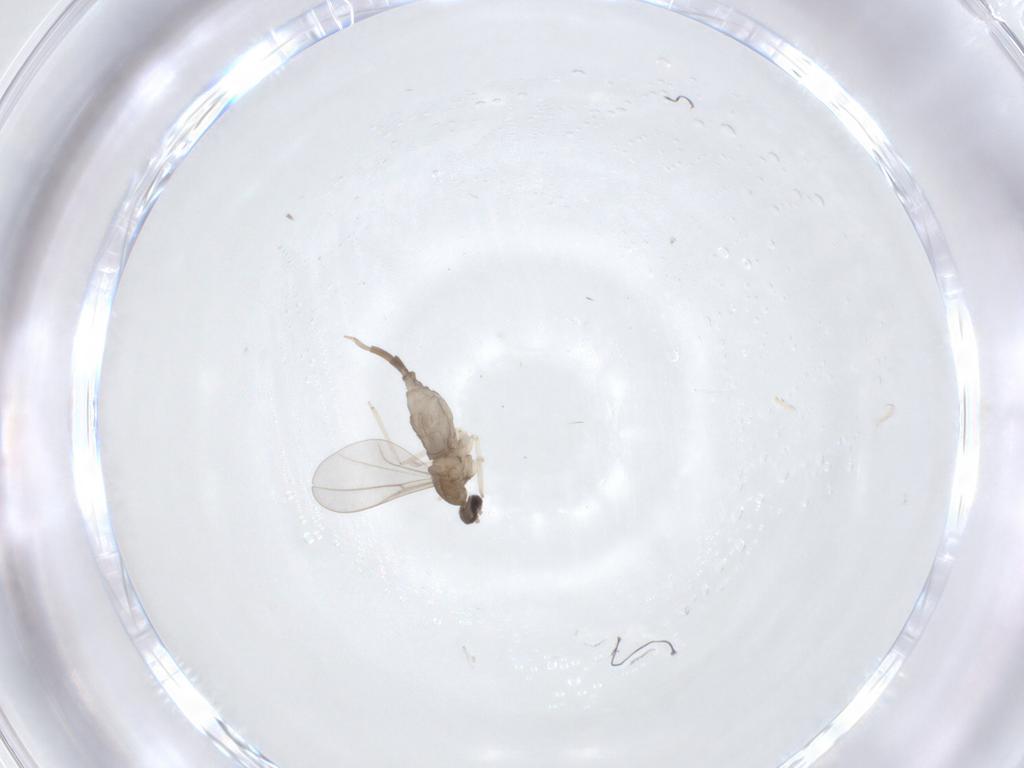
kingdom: Animalia
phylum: Arthropoda
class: Insecta
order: Diptera
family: Cecidomyiidae
